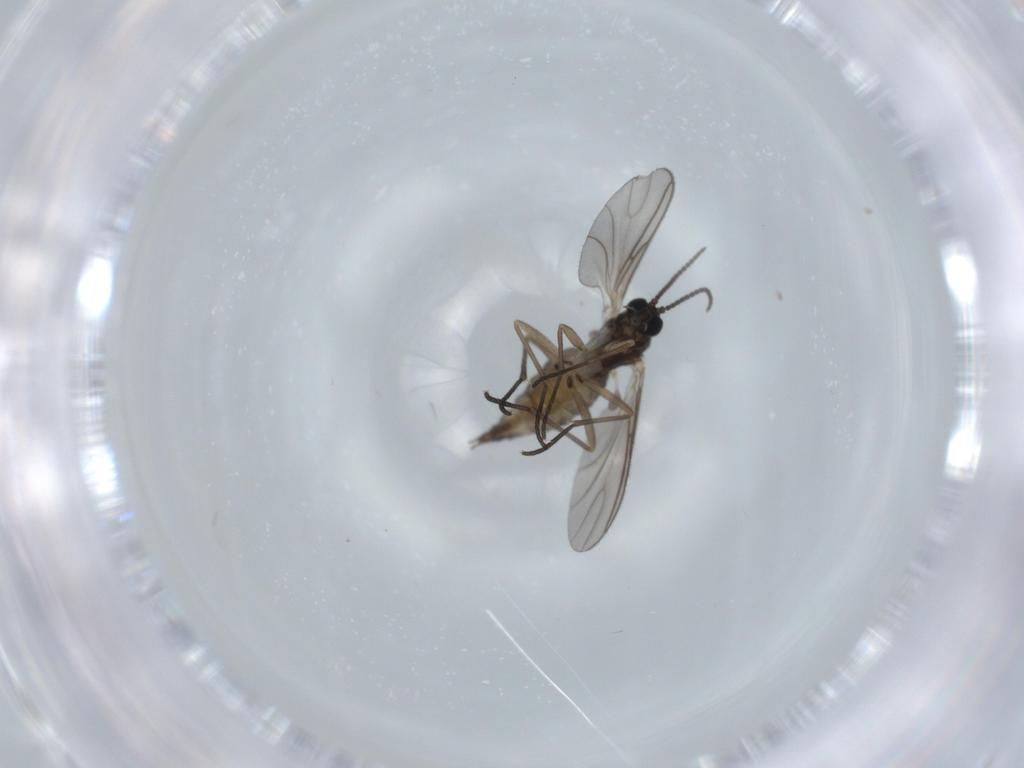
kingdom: Animalia
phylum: Arthropoda
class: Insecta
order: Diptera
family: Sciaridae
